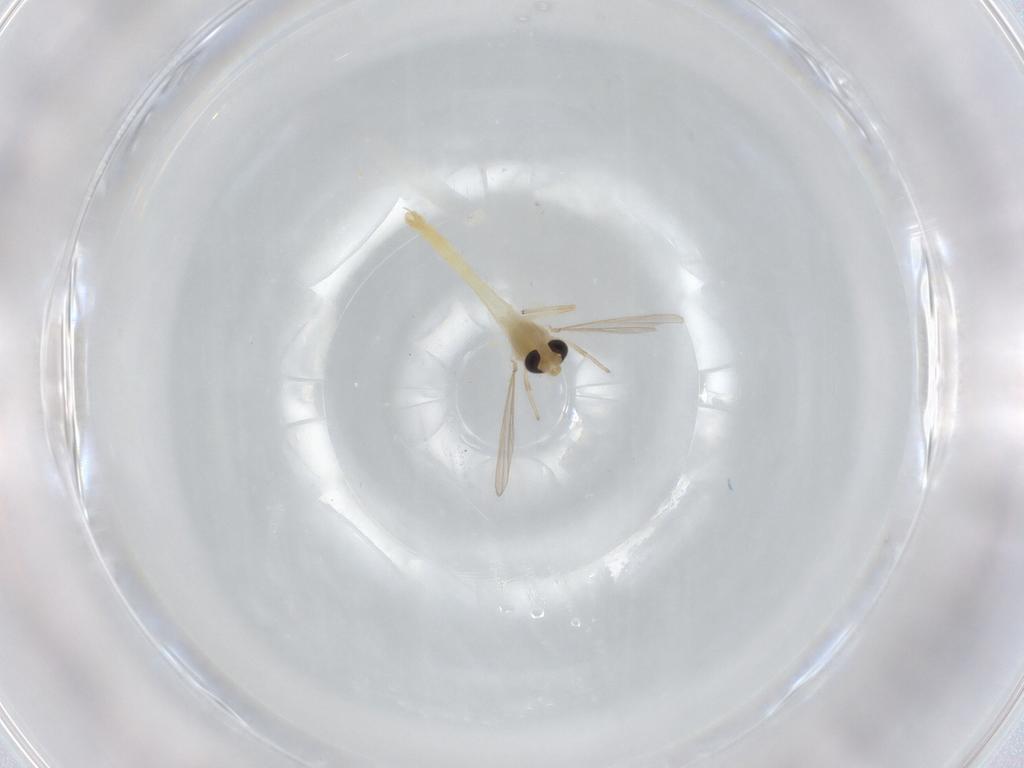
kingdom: Animalia
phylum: Arthropoda
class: Insecta
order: Diptera
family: Chironomidae
